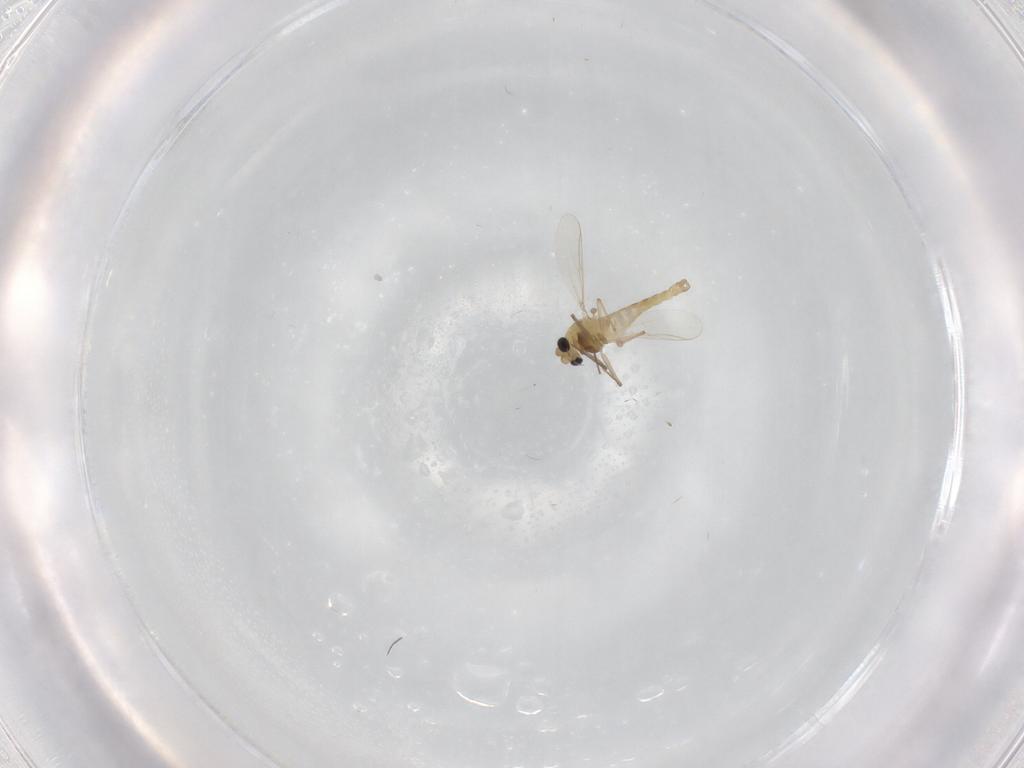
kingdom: Animalia
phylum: Arthropoda
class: Insecta
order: Diptera
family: Chironomidae
